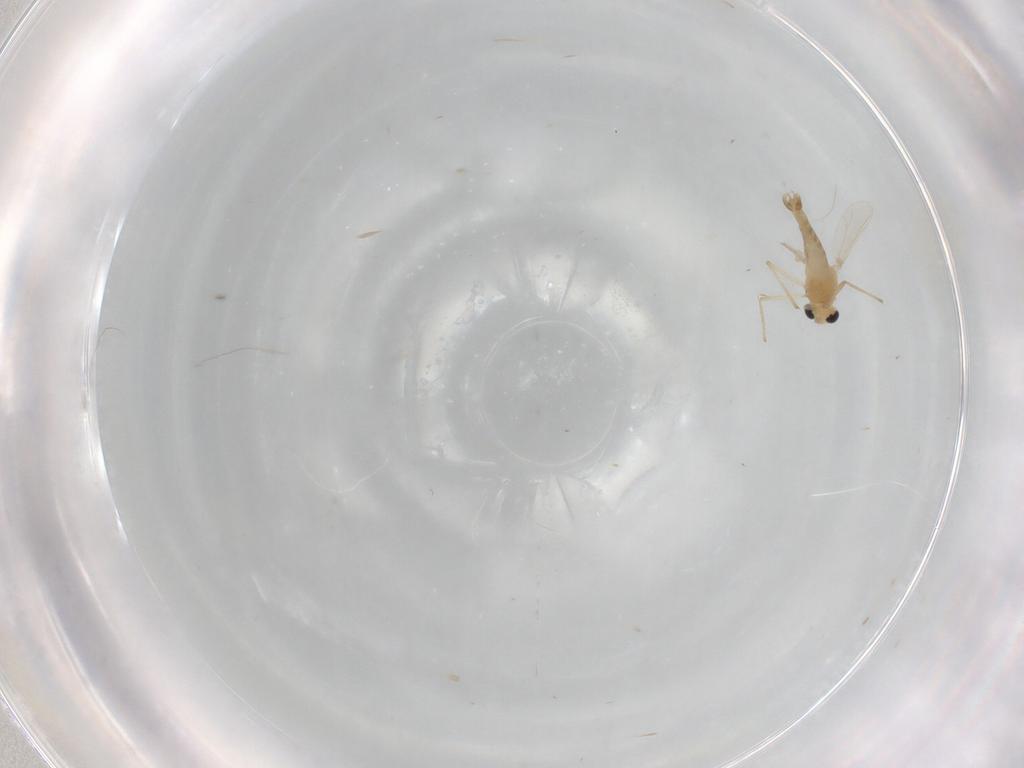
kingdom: Animalia
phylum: Arthropoda
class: Insecta
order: Diptera
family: Chironomidae
